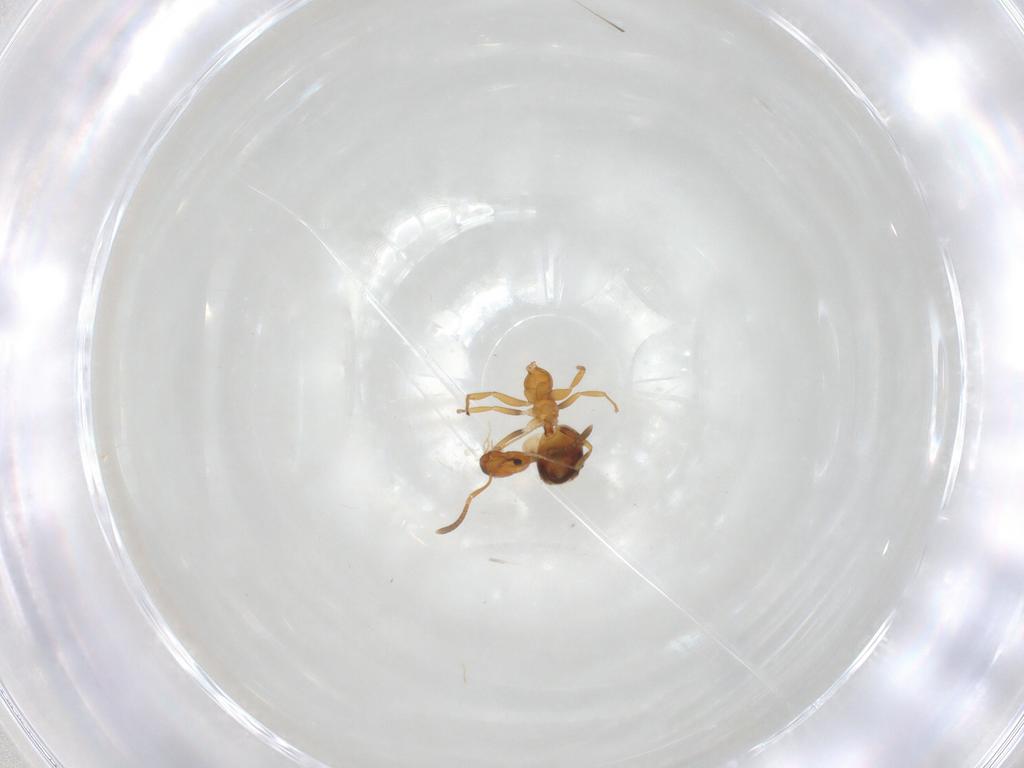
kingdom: Animalia
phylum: Arthropoda
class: Insecta
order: Hymenoptera
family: Formicidae
